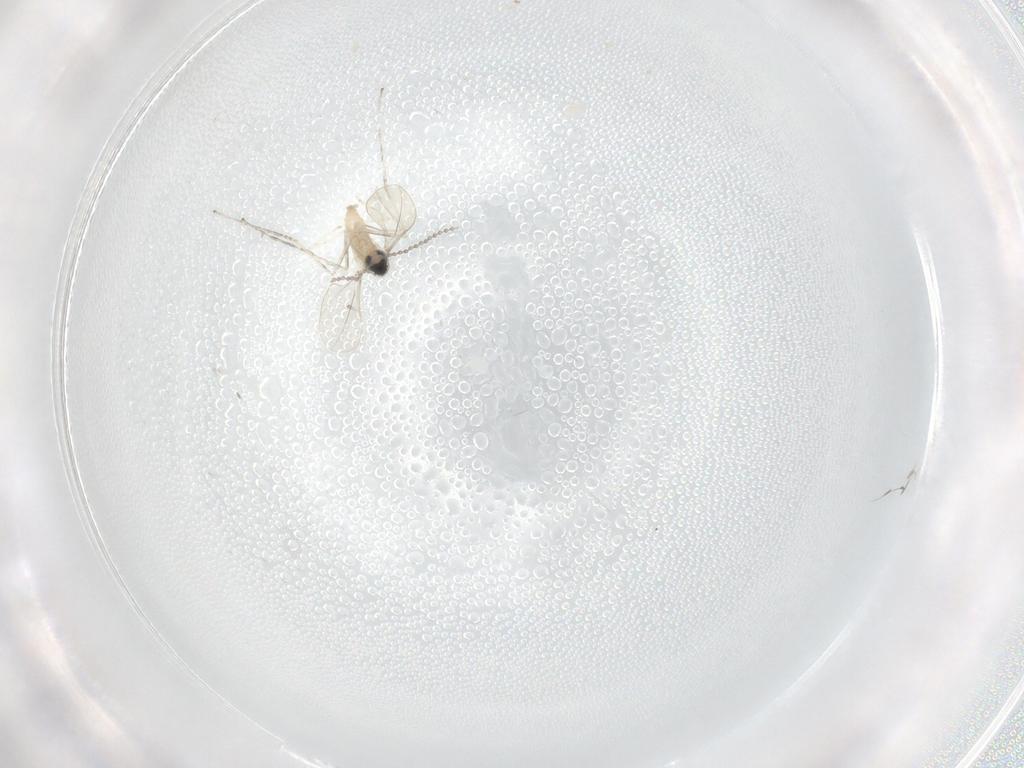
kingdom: Animalia
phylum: Arthropoda
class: Insecta
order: Diptera
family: Cecidomyiidae
